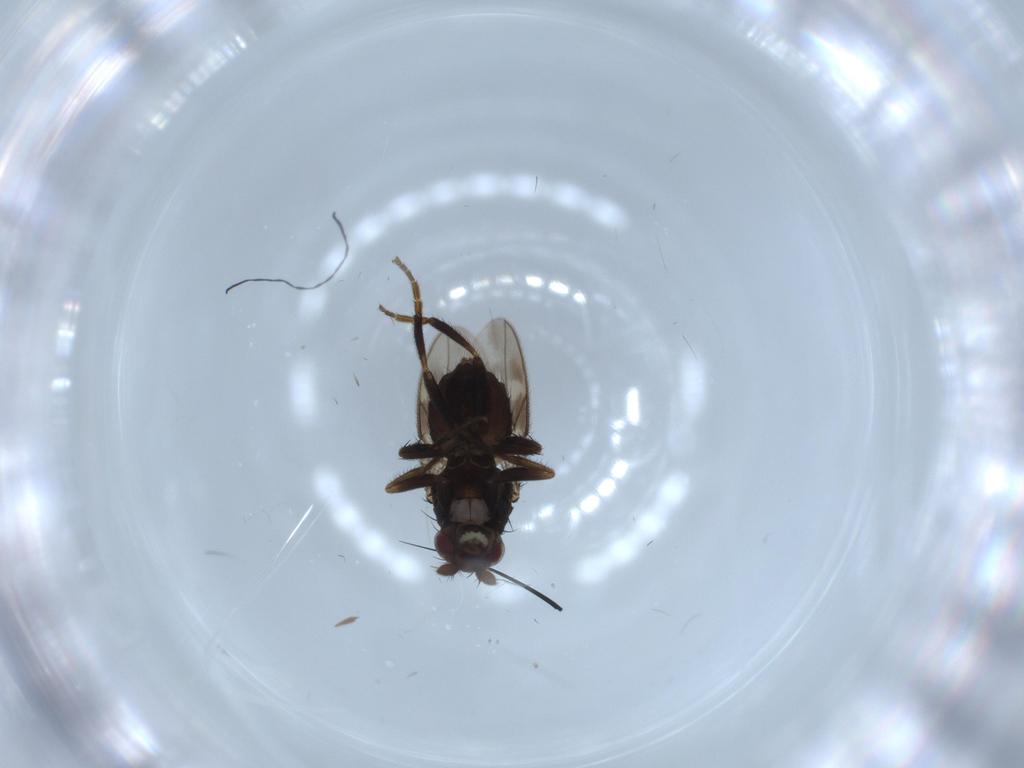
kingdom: Animalia
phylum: Arthropoda
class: Insecta
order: Diptera
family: Sphaeroceridae
